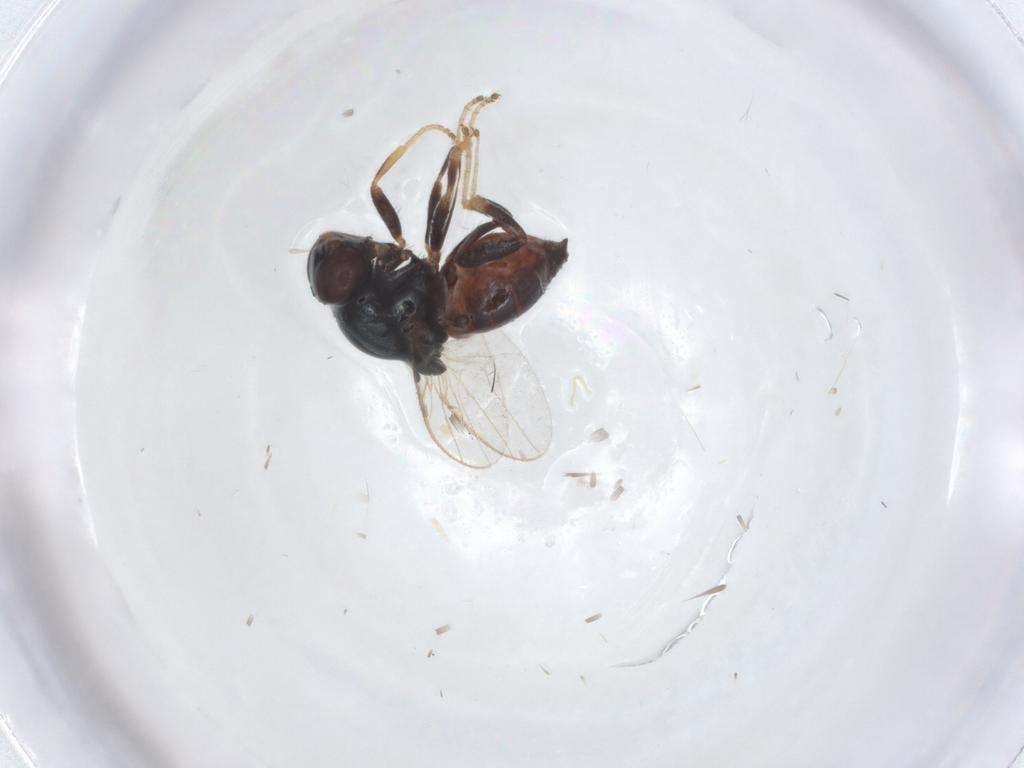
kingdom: Animalia
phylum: Arthropoda
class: Insecta
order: Diptera
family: Chloropidae
